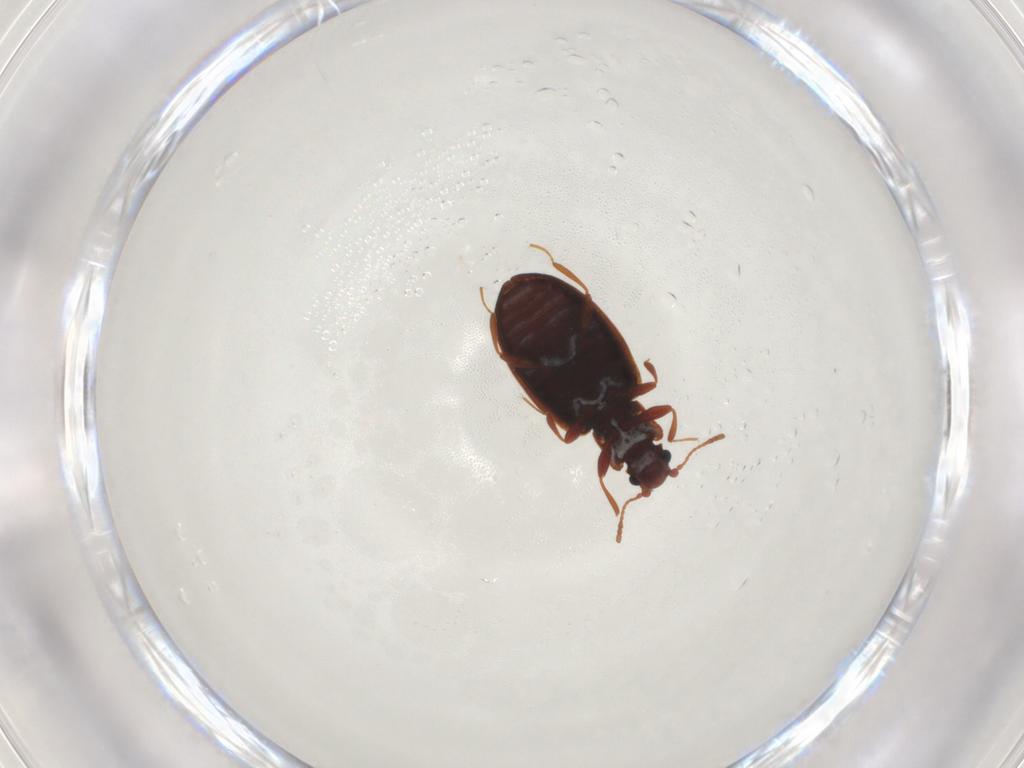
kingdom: Animalia
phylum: Arthropoda
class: Insecta
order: Coleoptera
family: Latridiidae
